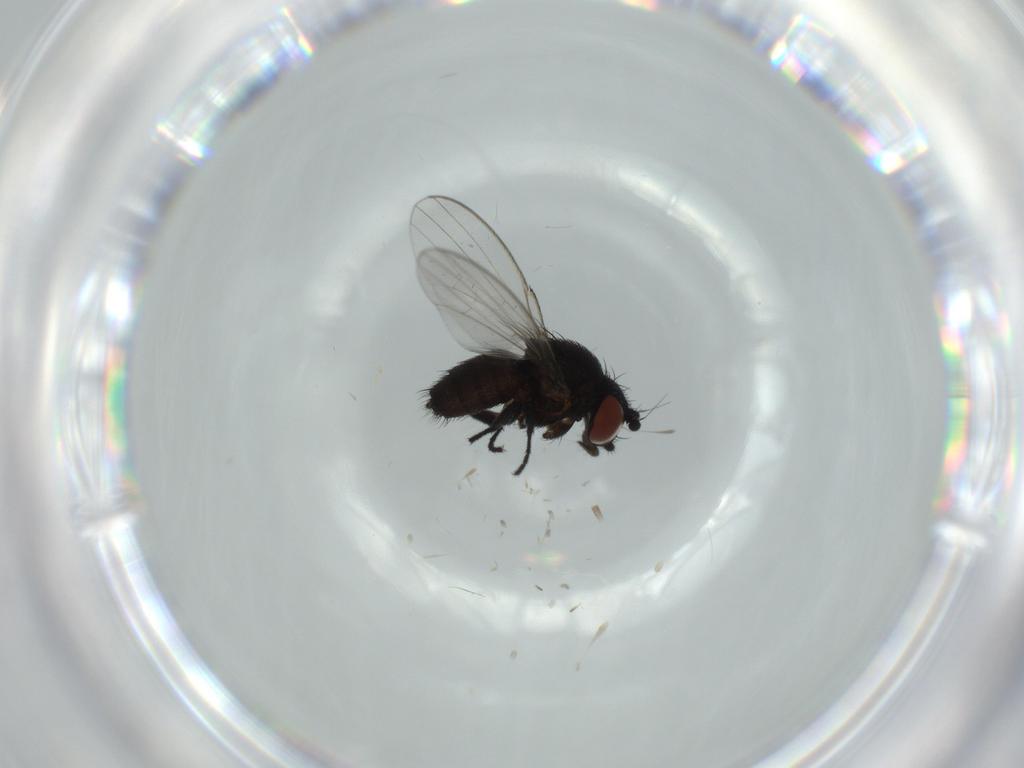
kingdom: Animalia
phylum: Arthropoda
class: Insecta
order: Diptera
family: Milichiidae
